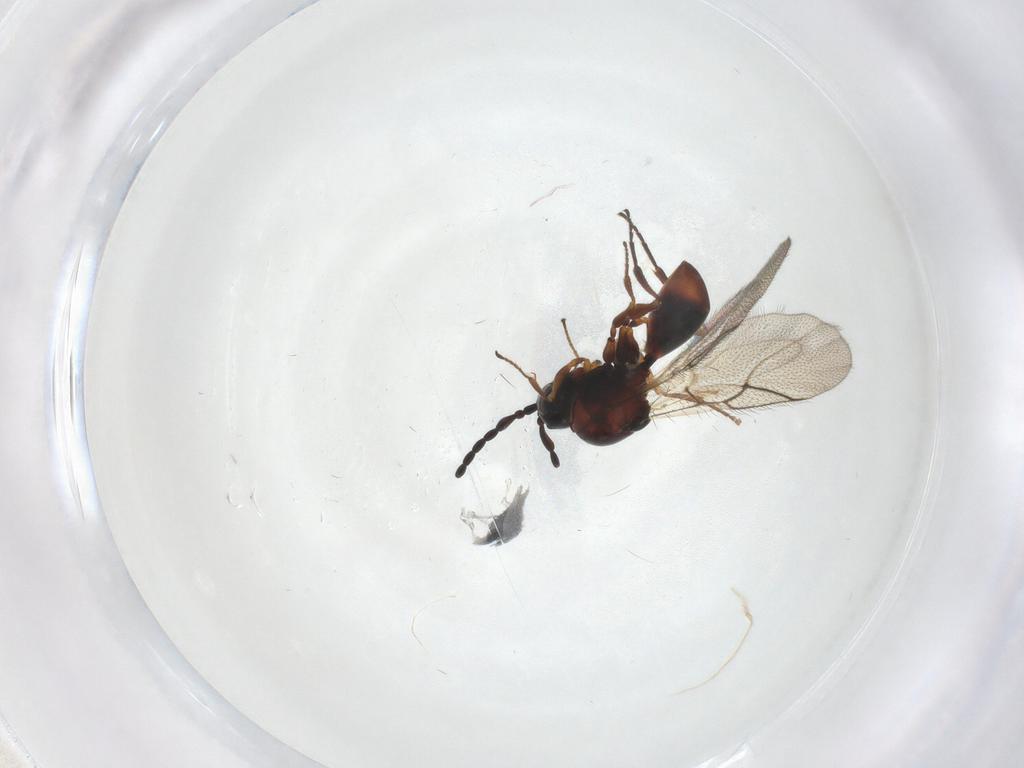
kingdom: Animalia
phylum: Arthropoda
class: Insecta
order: Hymenoptera
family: Figitidae
